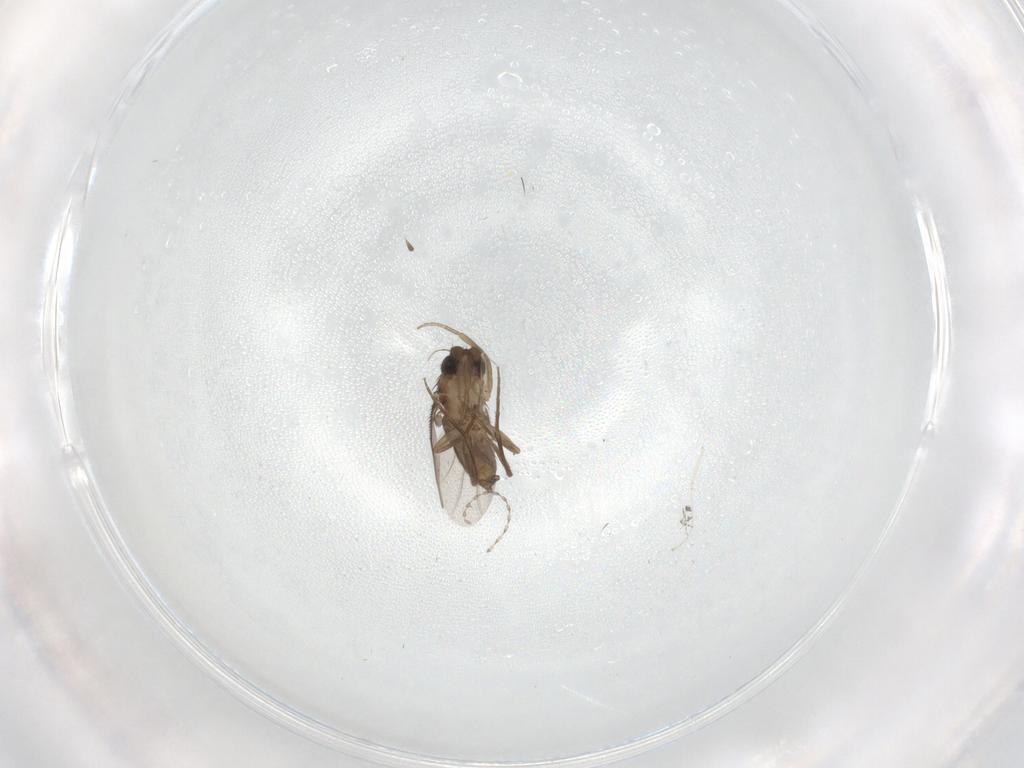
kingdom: Animalia
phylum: Arthropoda
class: Insecta
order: Diptera
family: Phoridae
